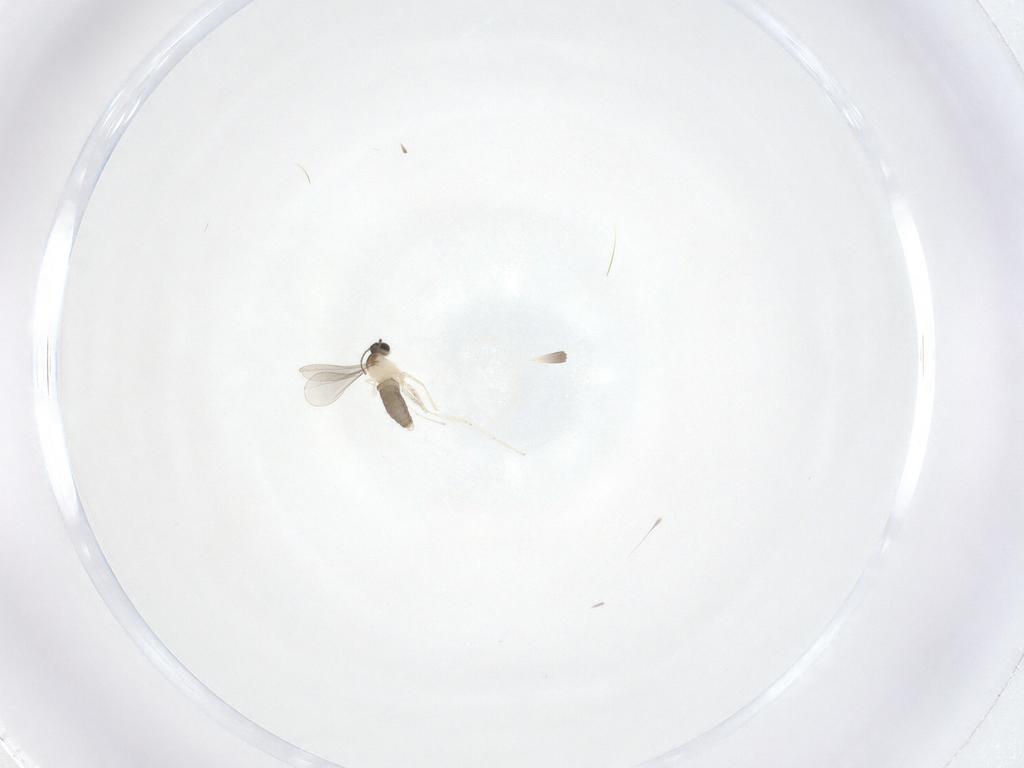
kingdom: Animalia
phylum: Arthropoda
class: Insecta
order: Diptera
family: Cecidomyiidae
